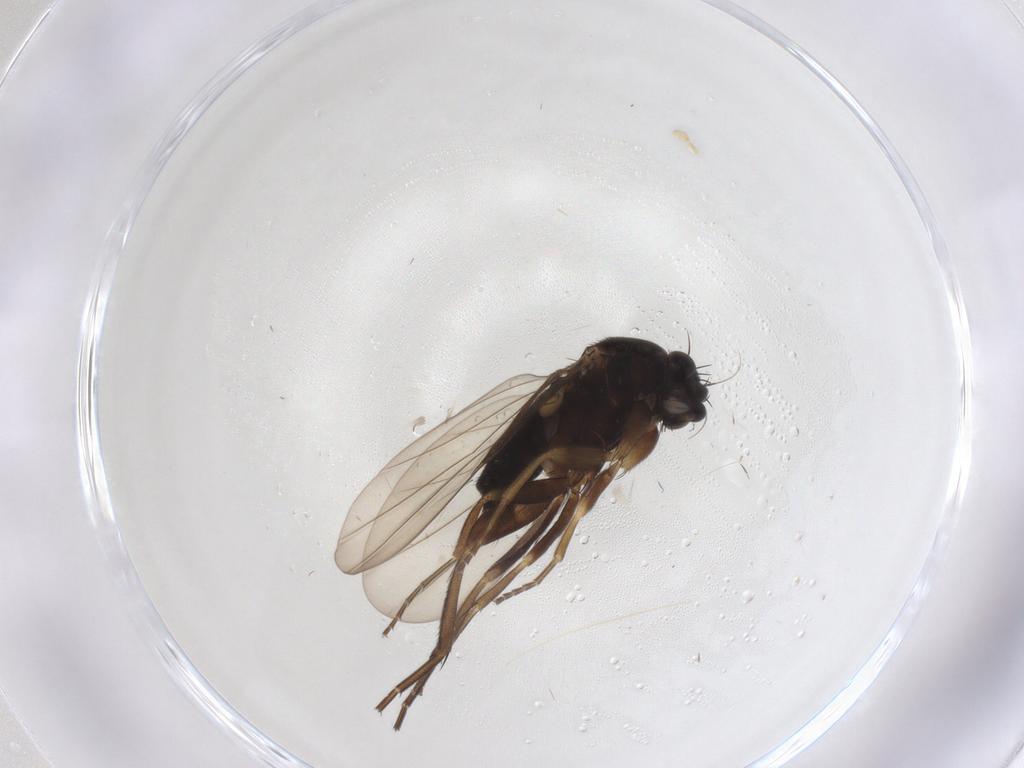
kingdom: Animalia
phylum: Arthropoda
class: Insecta
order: Diptera
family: Phoridae
